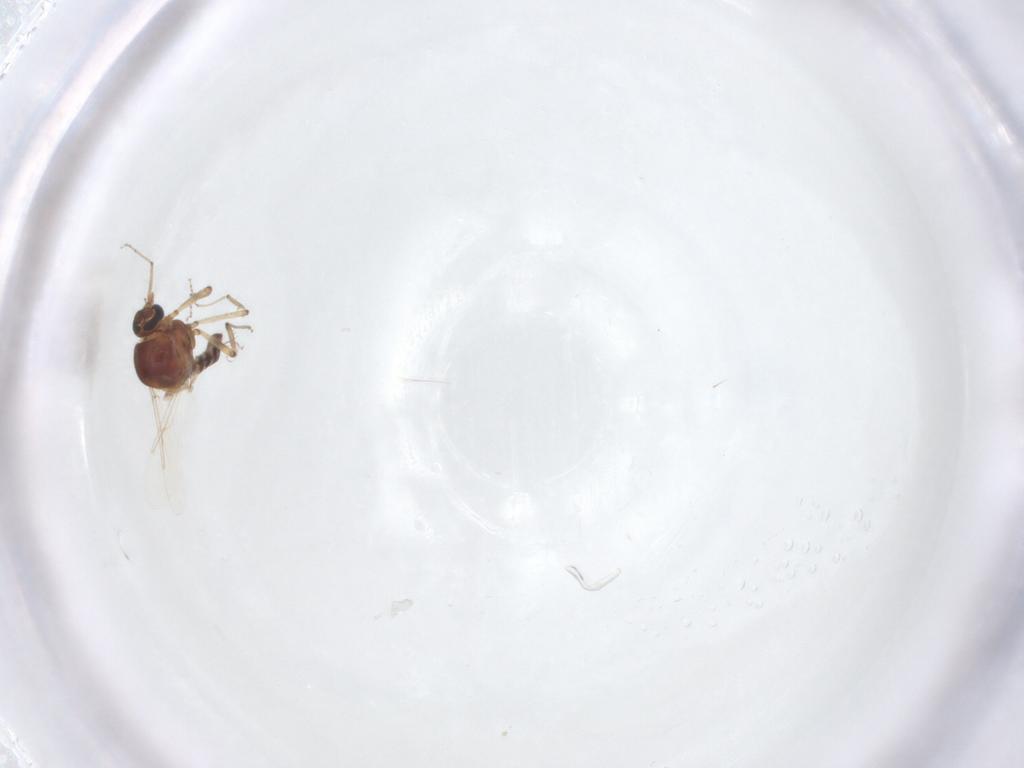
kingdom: Animalia
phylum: Arthropoda
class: Insecta
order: Diptera
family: Ceratopogonidae
